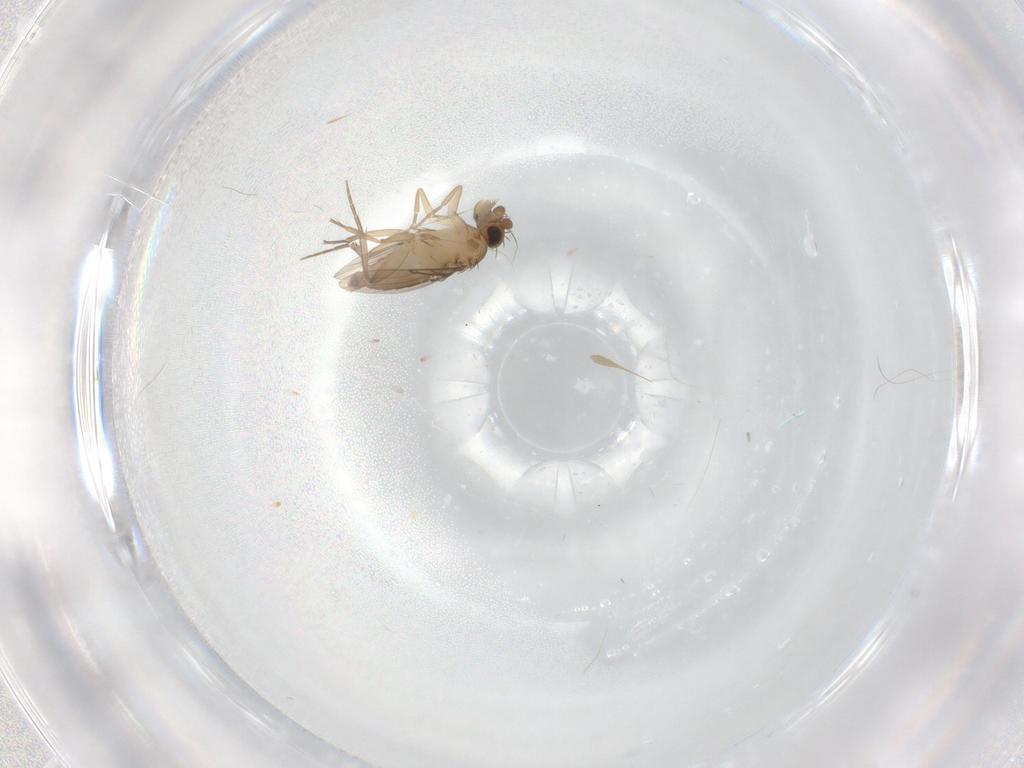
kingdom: Animalia
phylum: Arthropoda
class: Insecta
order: Diptera
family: Phoridae
